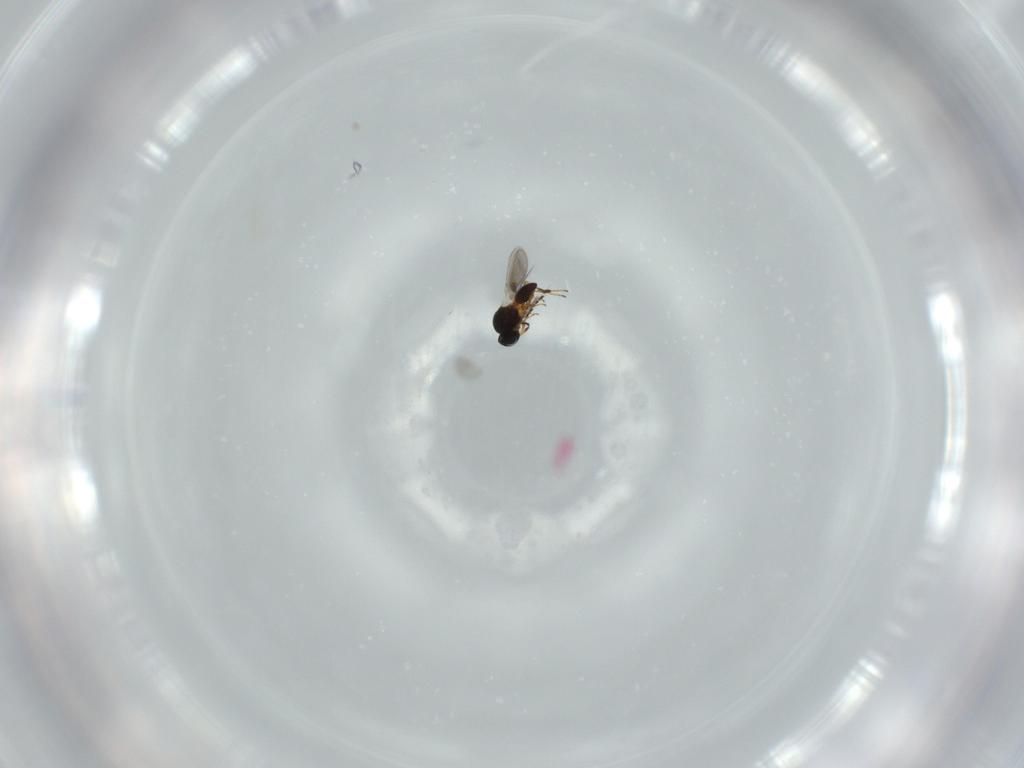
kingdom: Animalia
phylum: Arthropoda
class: Insecta
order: Hymenoptera
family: Platygastridae
